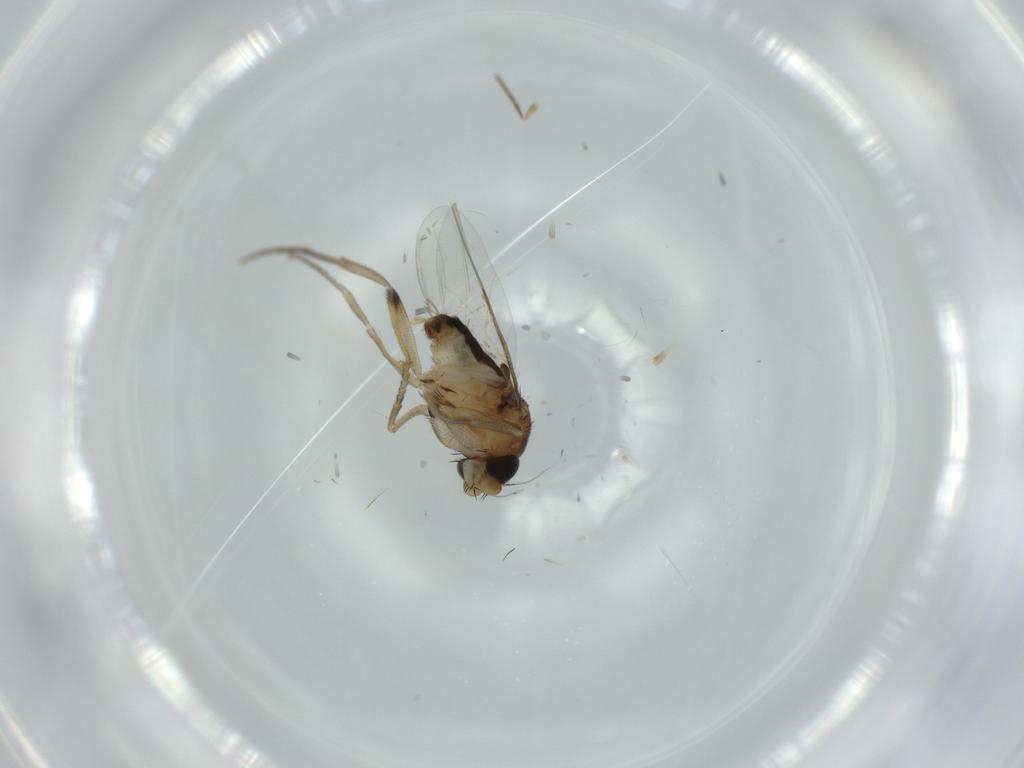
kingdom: Animalia
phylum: Arthropoda
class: Insecta
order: Diptera
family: Phoridae
